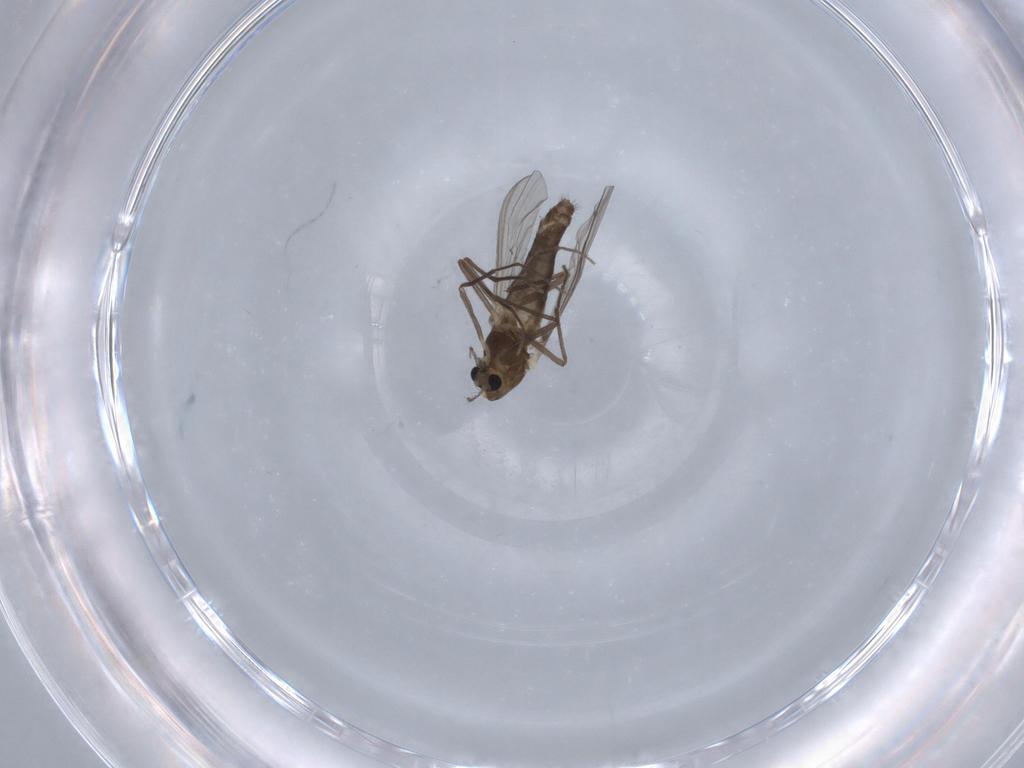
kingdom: Animalia
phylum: Arthropoda
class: Insecta
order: Diptera
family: Chironomidae
